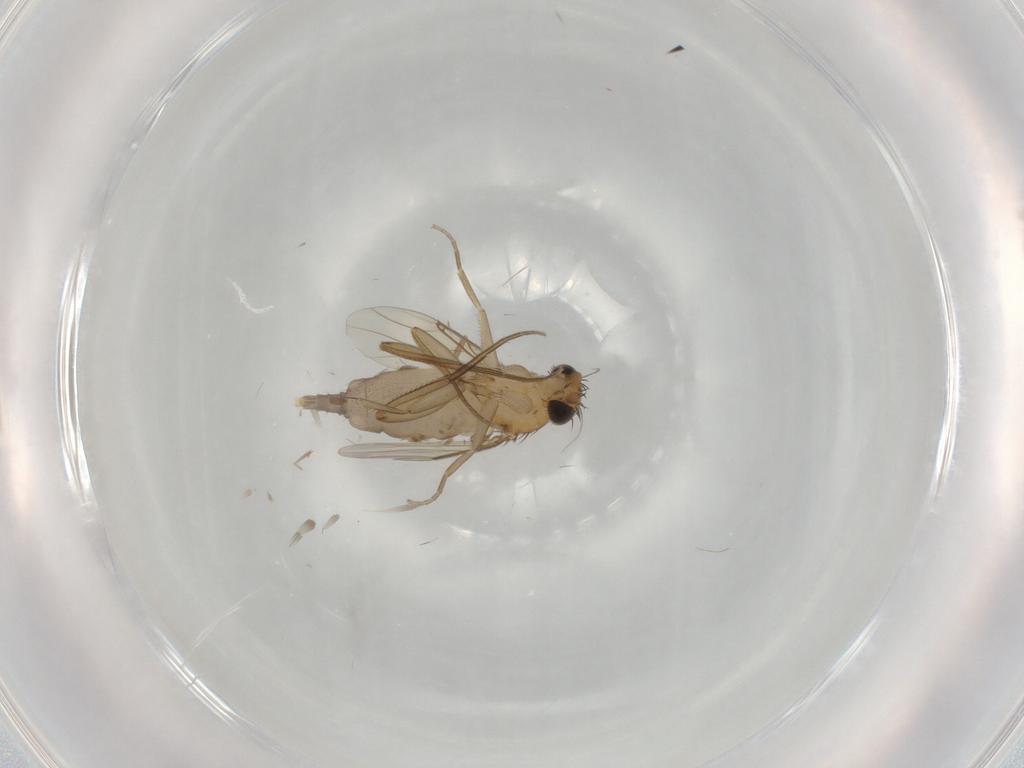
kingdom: Animalia
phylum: Arthropoda
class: Insecta
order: Diptera
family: Phoridae
